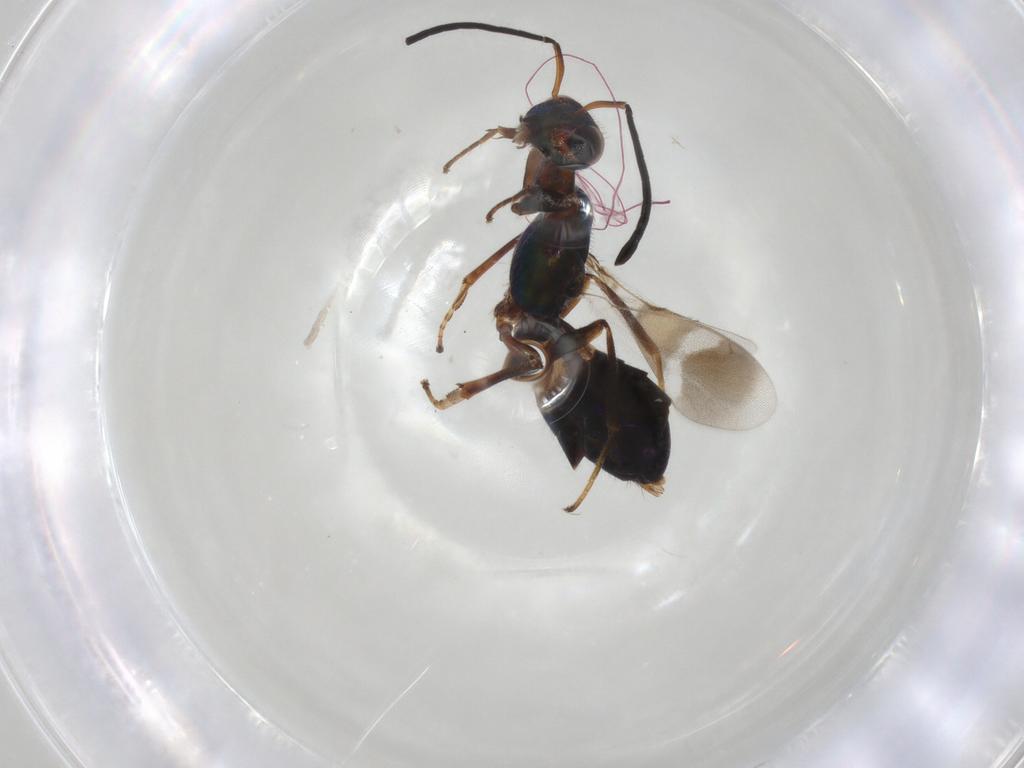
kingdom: Animalia
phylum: Arthropoda
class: Insecta
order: Hymenoptera
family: Eupelmidae
